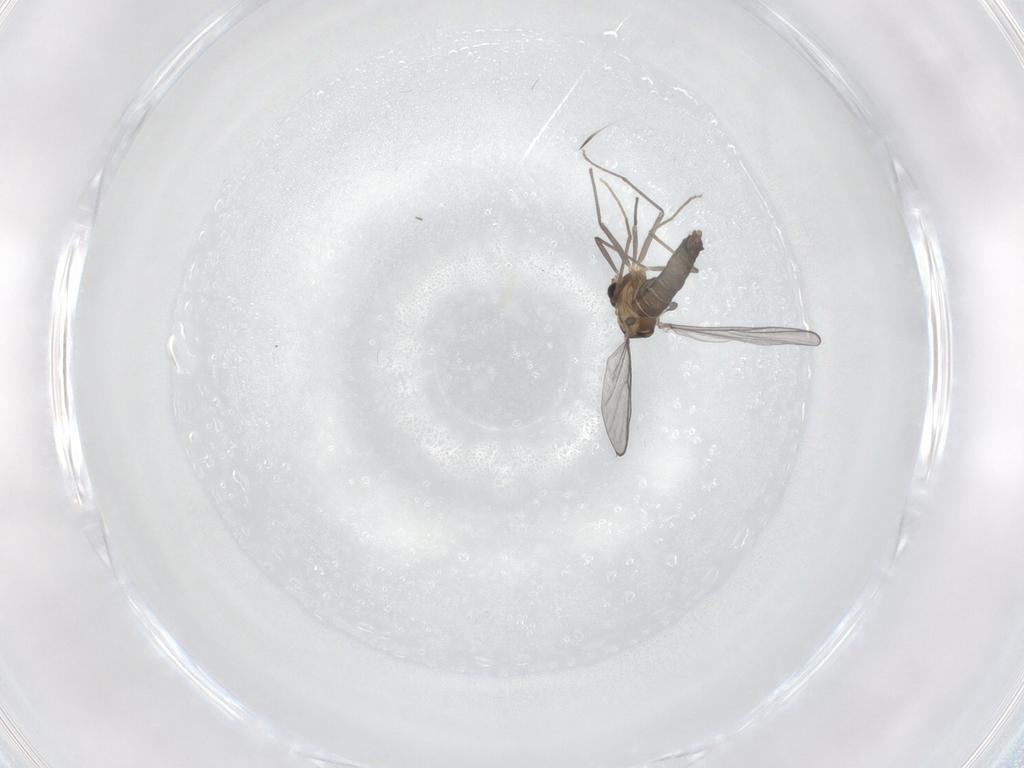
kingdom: Animalia
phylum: Arthropoda
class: Insecta
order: Diptera
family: Chironomidae
